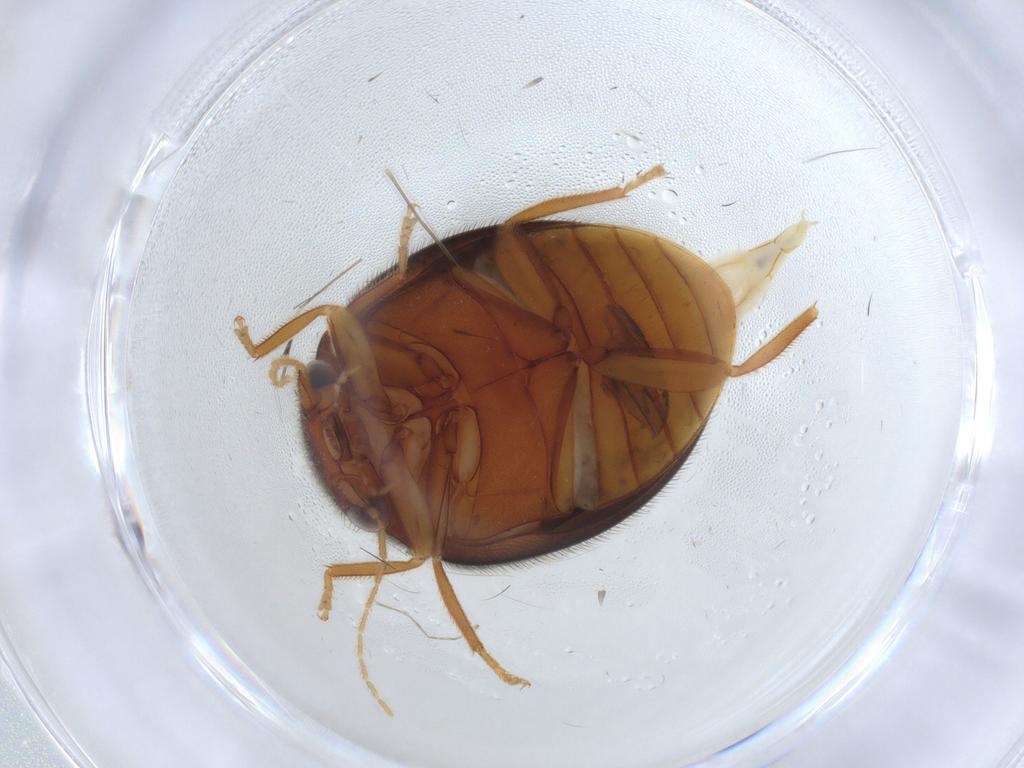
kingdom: Animalia
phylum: Arthropoda
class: Insecta
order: Coleoptera
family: Scirtidae
